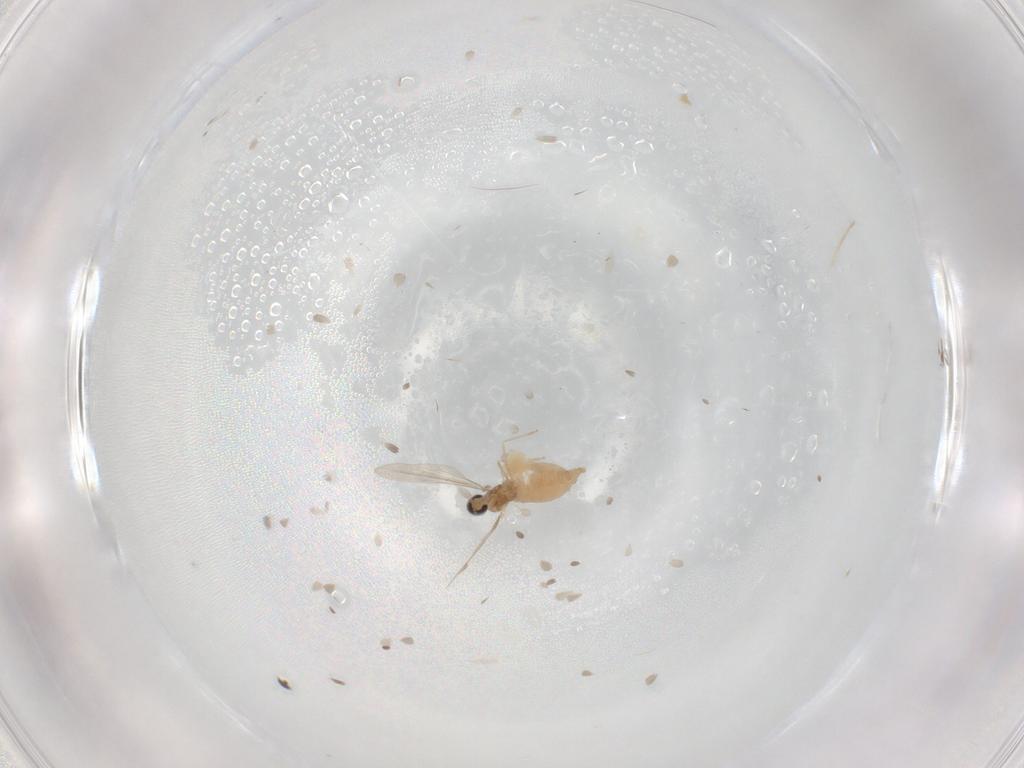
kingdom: Animalia
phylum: Arthropoda
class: Insecta
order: Diptera
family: Cecidomyiidae
